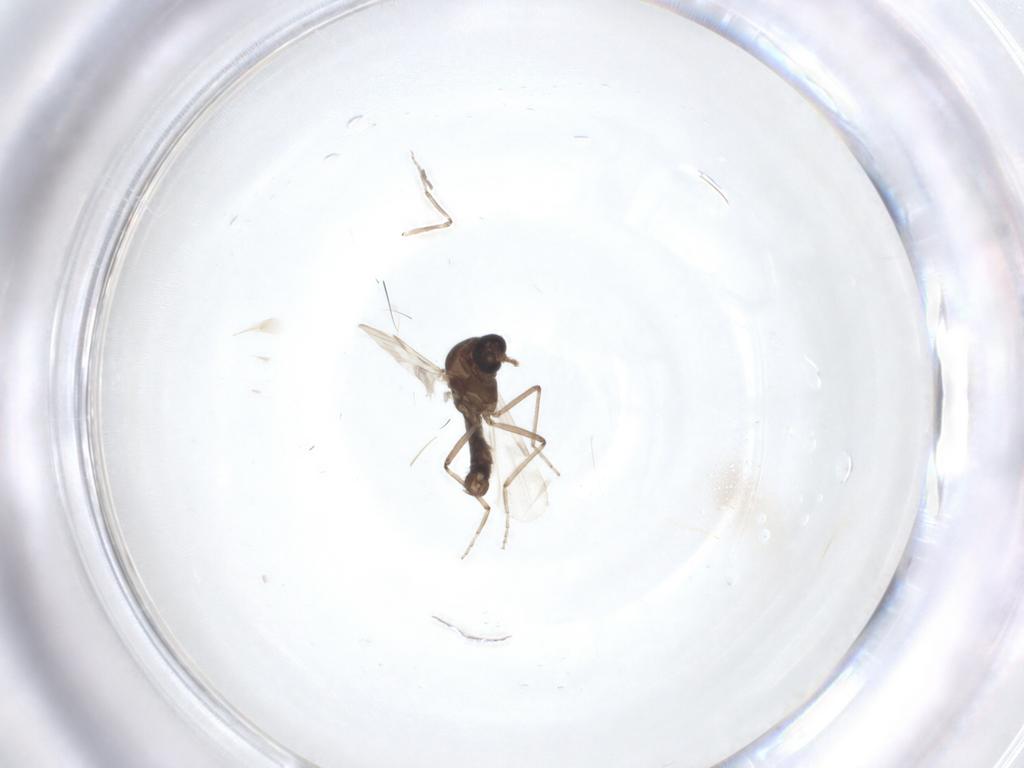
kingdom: Animalia
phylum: Arthropoda
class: Insecta
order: Diptera
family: Ceratopogonidae
